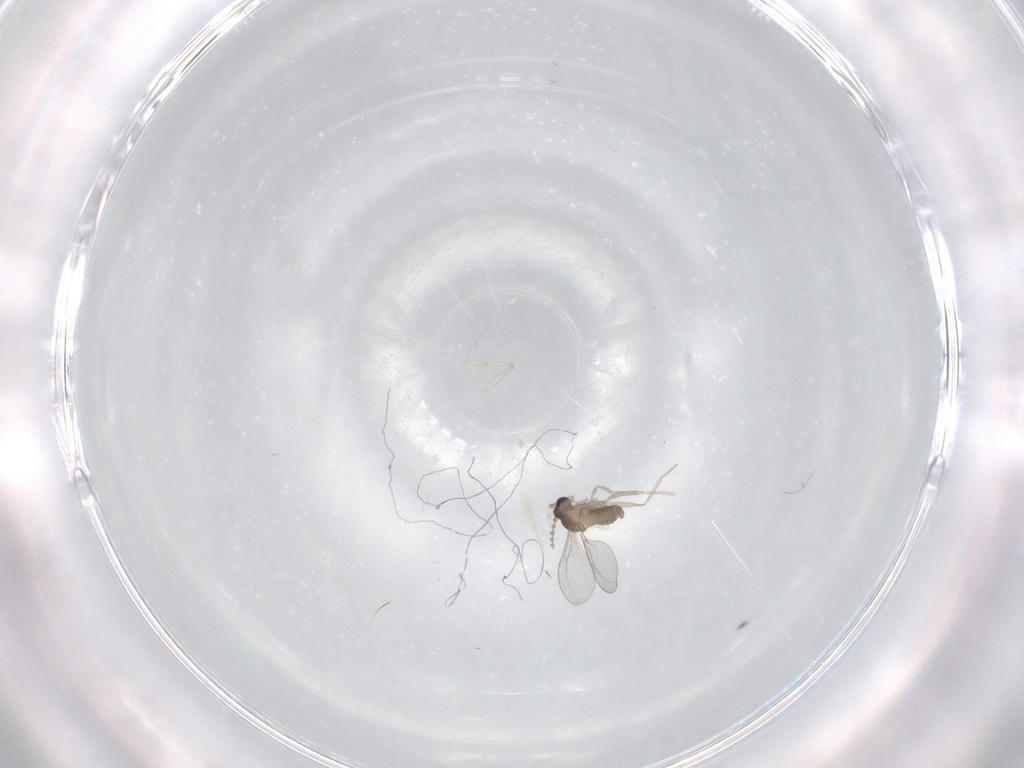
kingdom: Animalia
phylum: Arthropoda
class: Insecta
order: Diptera
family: Cecidomyiidae
